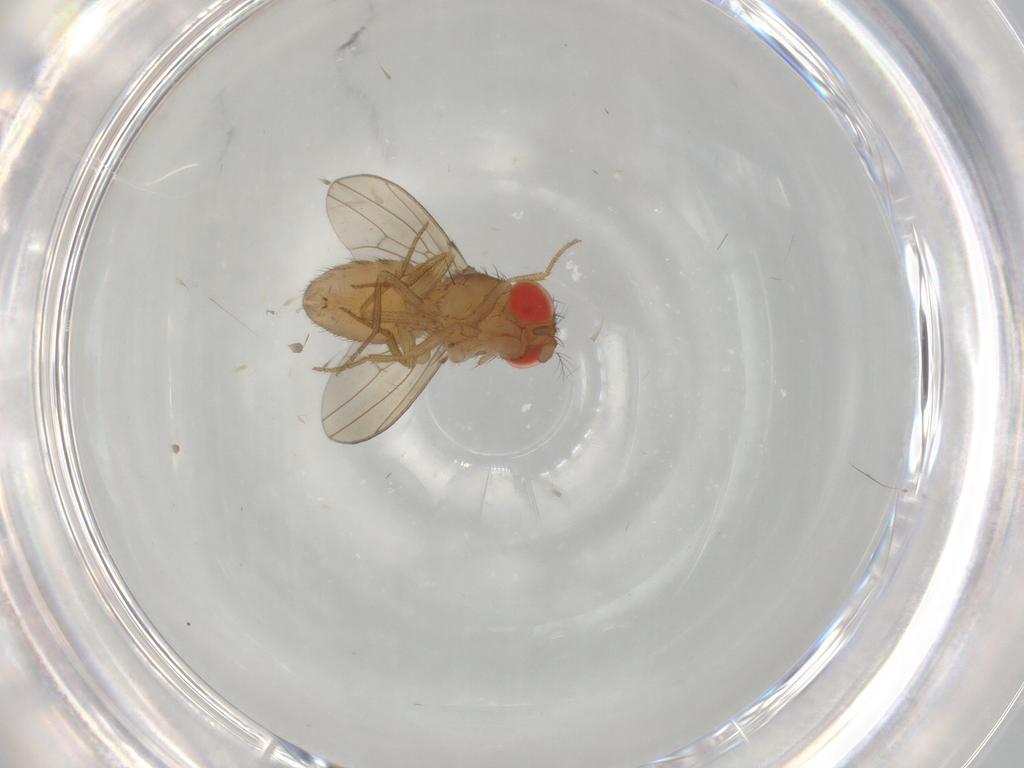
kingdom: Animalia
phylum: Arthropoda
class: Insecta
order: Diptera
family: Drosophilidae
